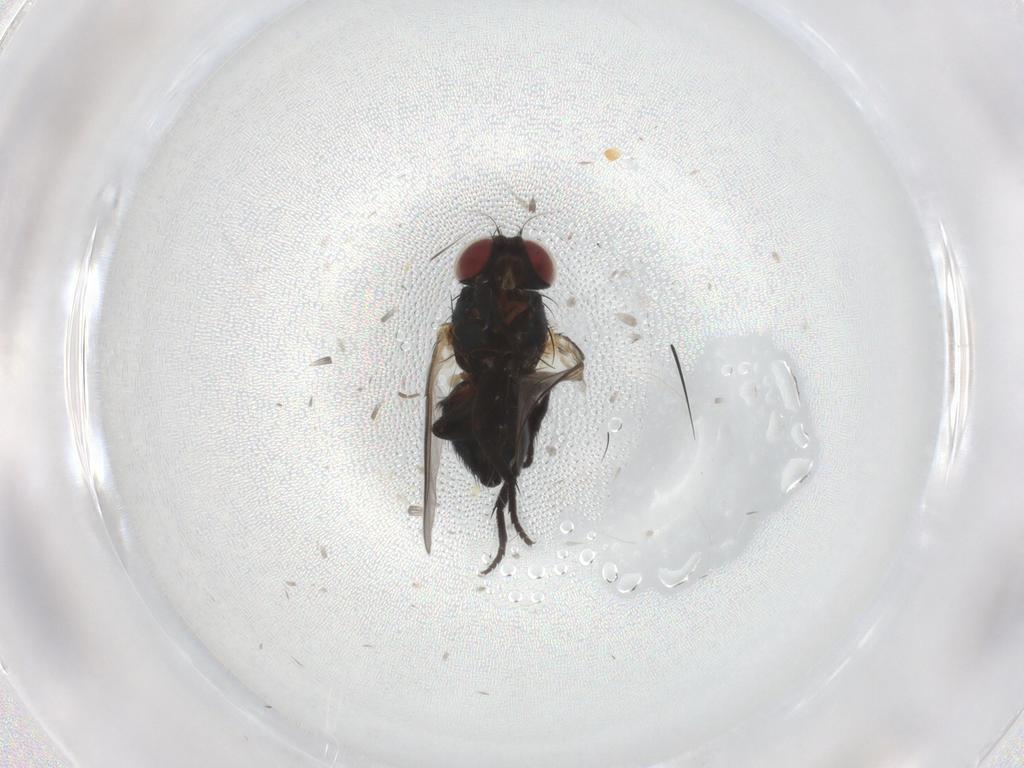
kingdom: Animalia
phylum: Arthropoda
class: Insecta
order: Diptera
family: Agromyzidae
